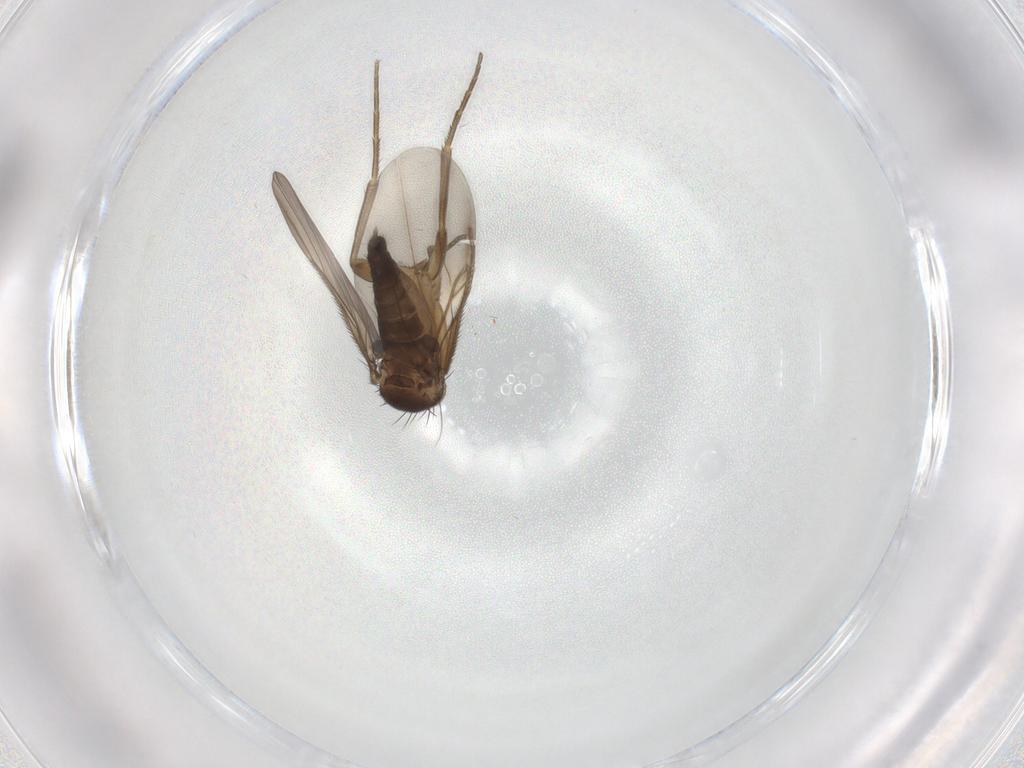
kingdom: Animalia
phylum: Arthropoda
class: Insecta
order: Diptera
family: Phoridae
